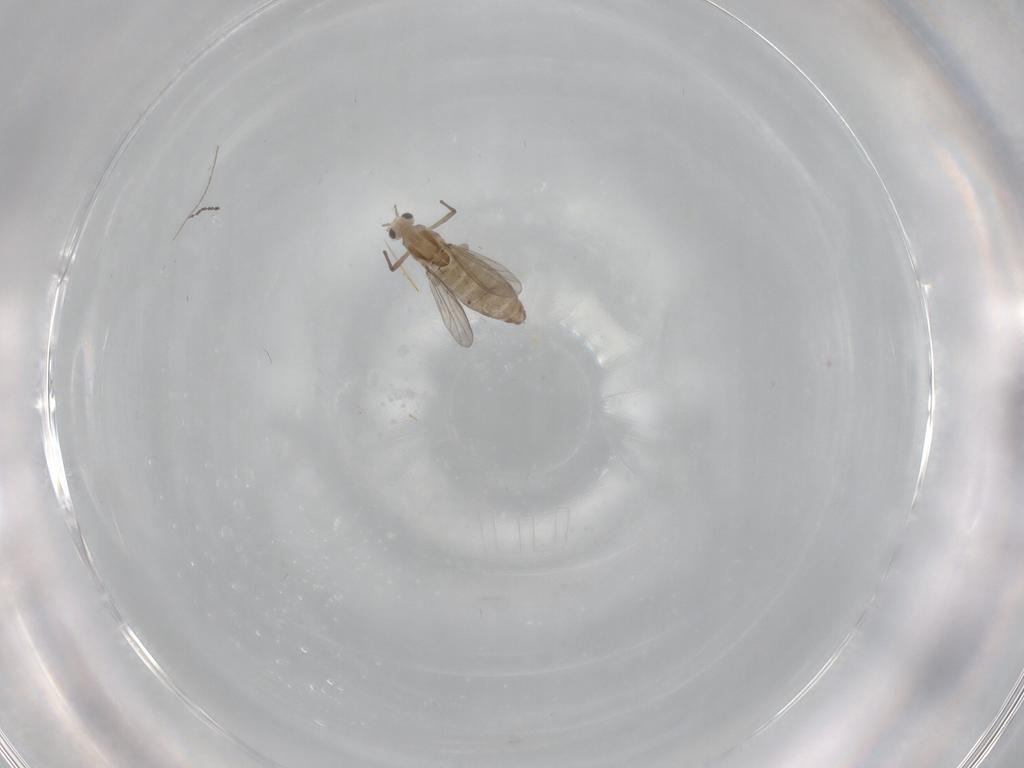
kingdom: Animalia
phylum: Arthropoda
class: Insecta
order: Diptera
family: Chironomidae
